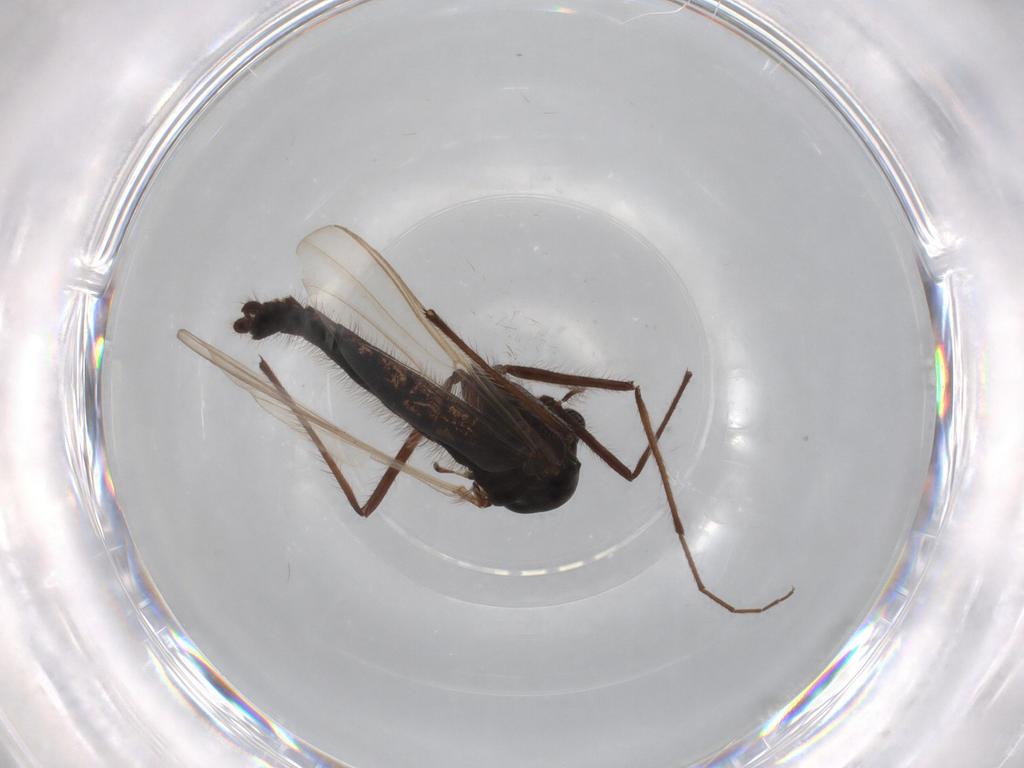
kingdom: Animalia
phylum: Arthropoda
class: Insecta
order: Diptera
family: Chironomidae
